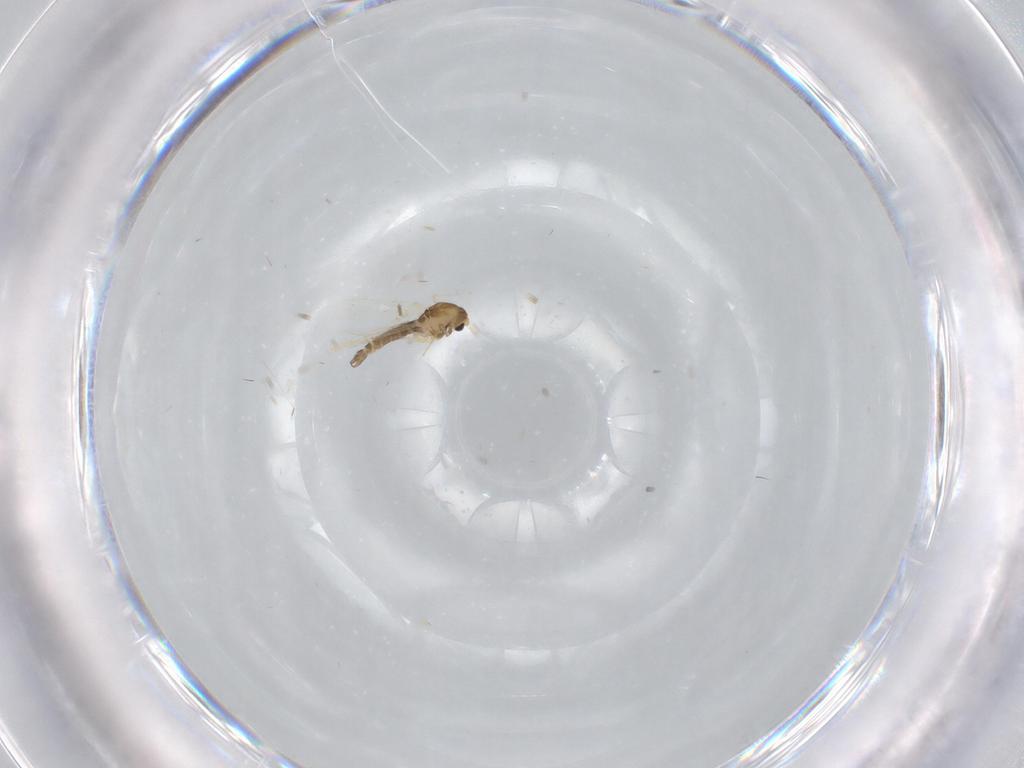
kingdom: Animalia
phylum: Arthropoda
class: Insecta
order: Diptera
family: Chironomidae
